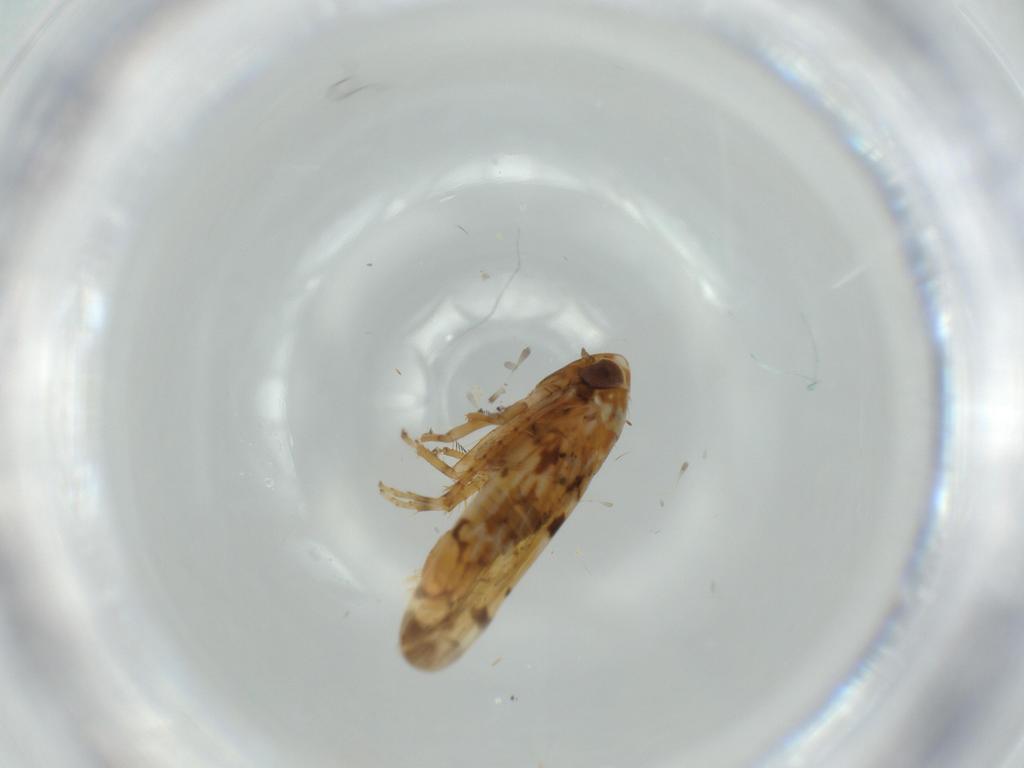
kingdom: Animalia
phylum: Arthropoda
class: Insecta
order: Hemiptera
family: Cicadellidae
